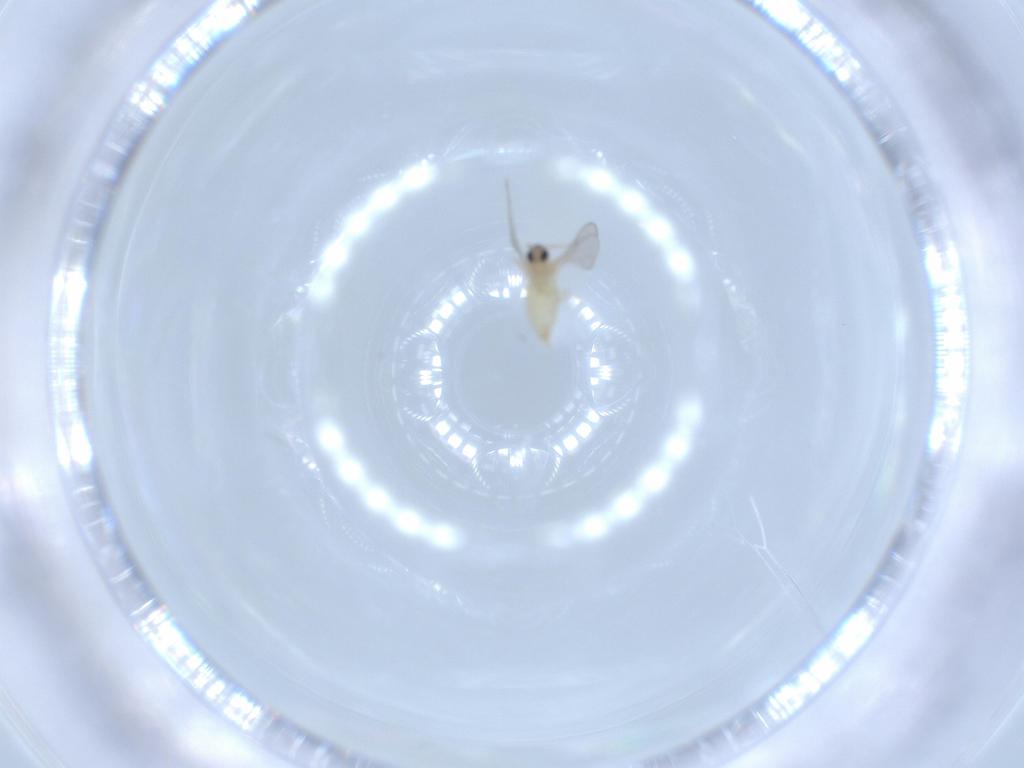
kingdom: Animalia
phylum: Arthropoda
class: Insecta
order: Diptera
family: Cecidomyiidae
